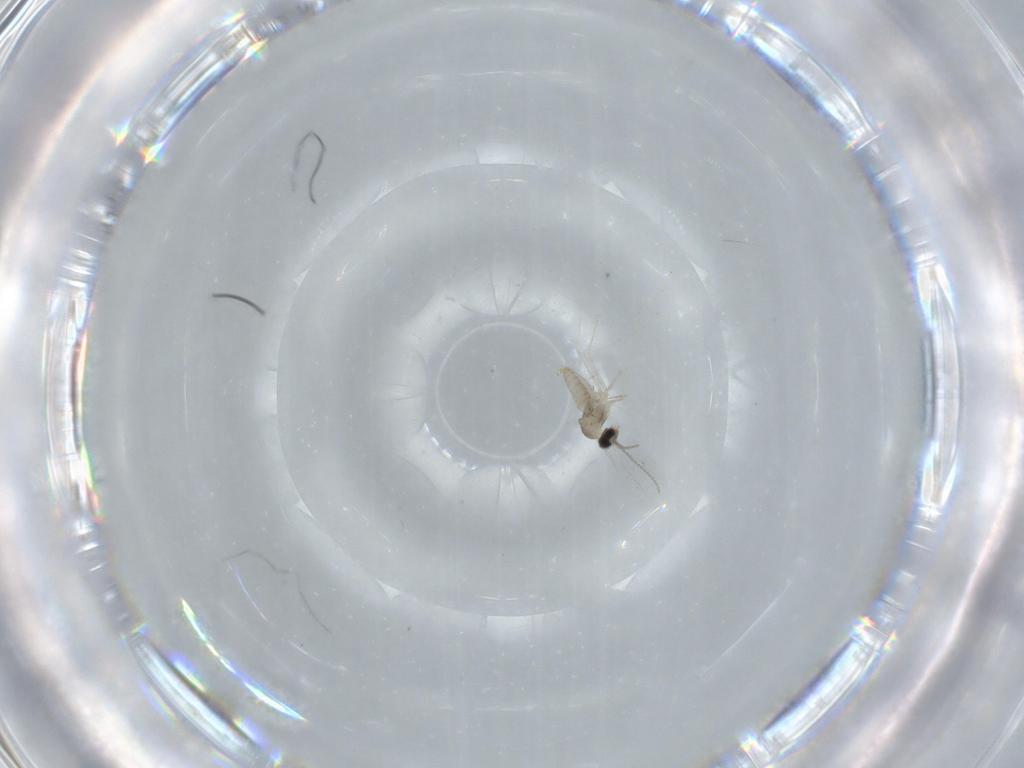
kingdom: Animalia
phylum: Arthropoda
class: Insecta
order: Diptera
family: Cecidomyiidae
